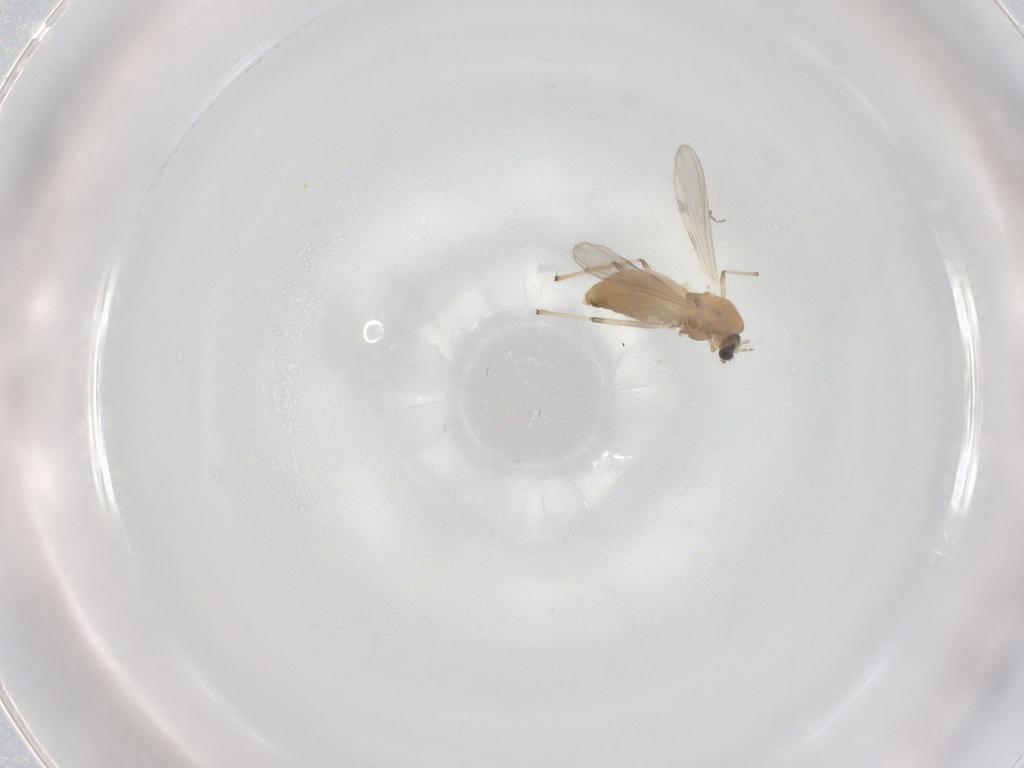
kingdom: Animalia
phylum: Arthropoda
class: Insecta
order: Diptera
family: Chironomidae
